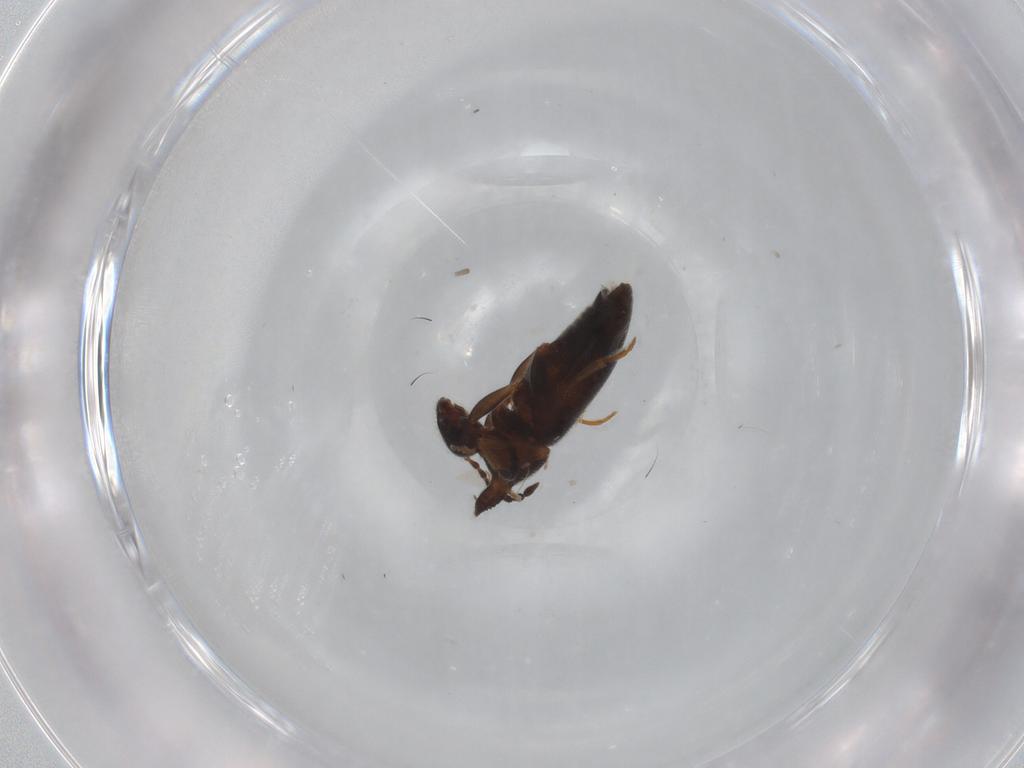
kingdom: Animalia
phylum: Arthropoda
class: Insecta
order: Coleoptera
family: Anthicidae
